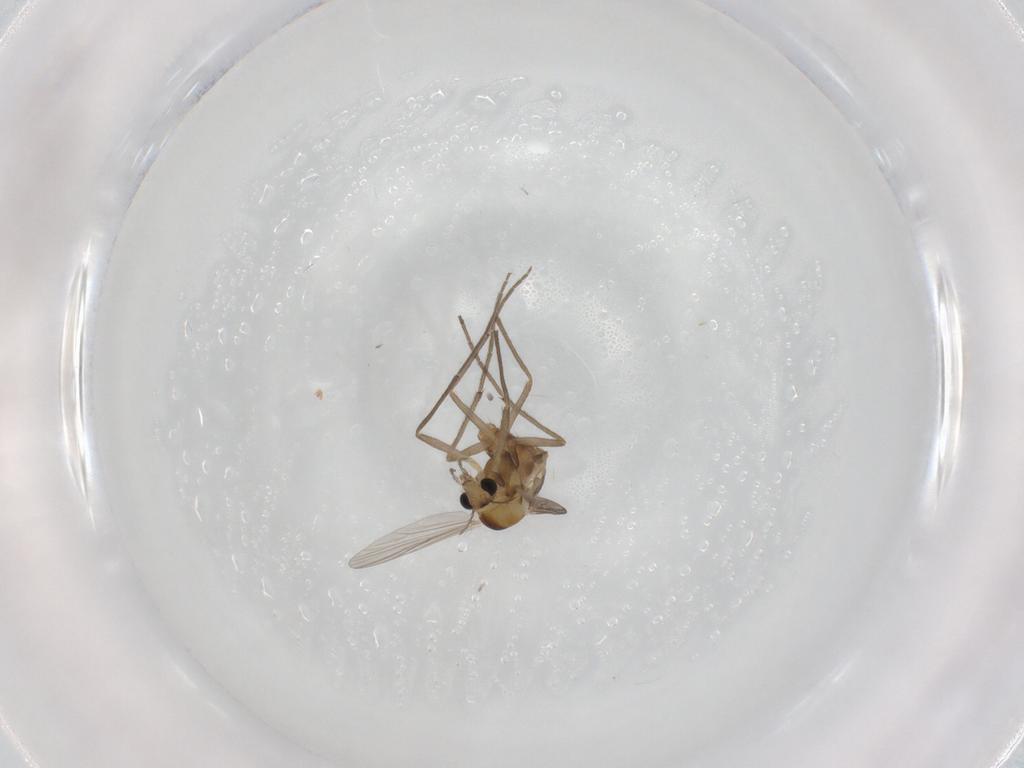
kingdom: Animalia
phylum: Arthropoda
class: Insecta
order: Diptera
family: Chironomidae
